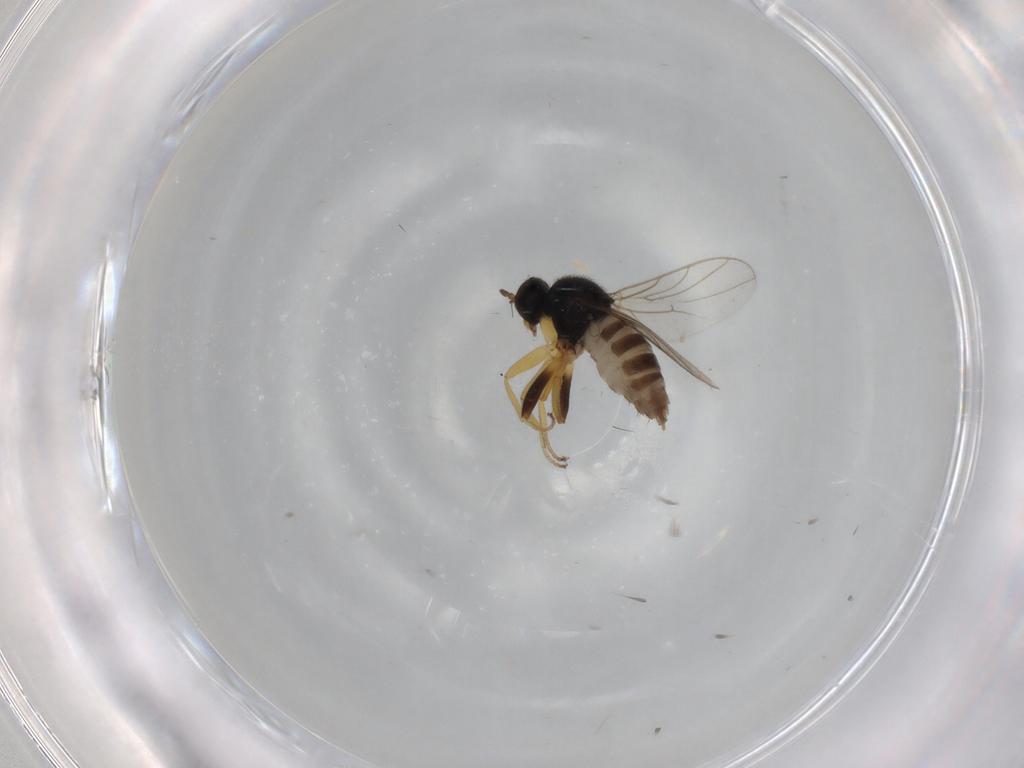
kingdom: Animalia
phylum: Arthropoda
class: Insecta
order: Diptera
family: Hybotidae
